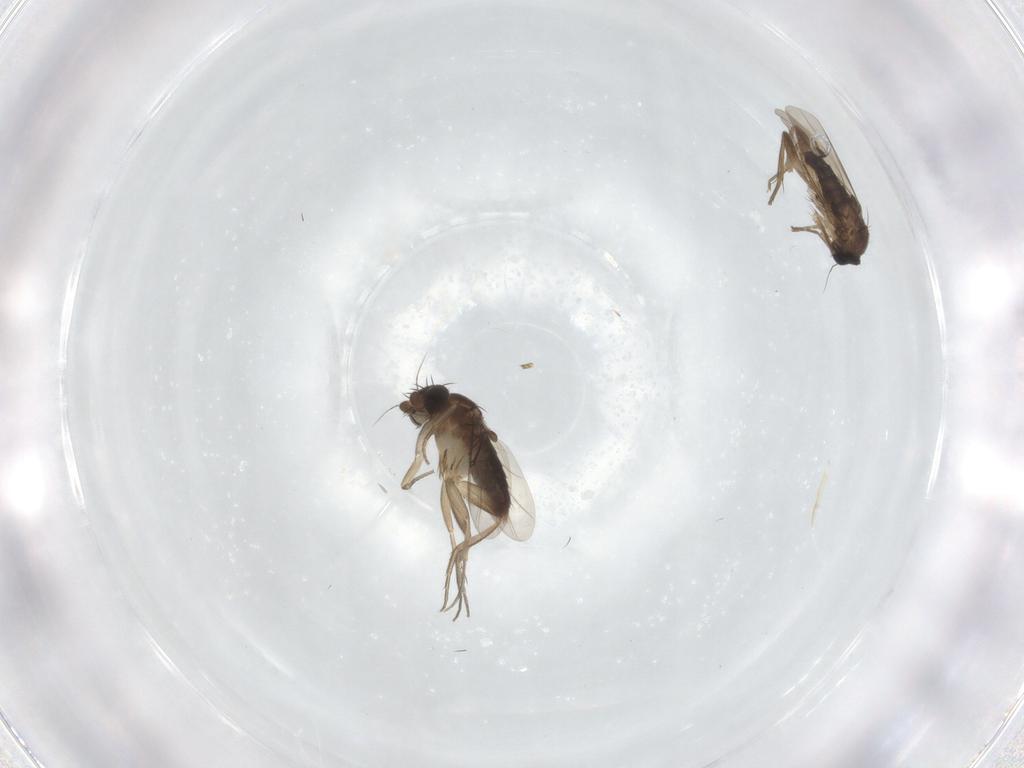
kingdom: Animalia
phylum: Arthropoda
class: Insecta
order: Diptera
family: Phoridae
